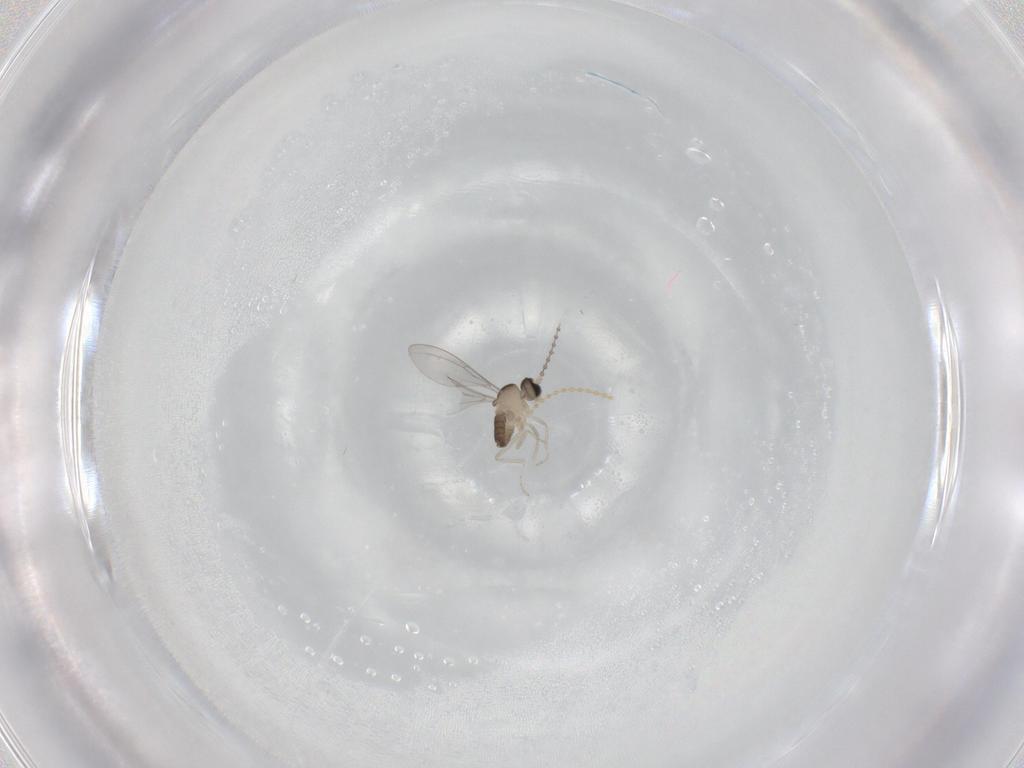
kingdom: Animalia
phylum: Arthropoda
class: Insecta
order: Diptera
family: Cecidomyiidae
